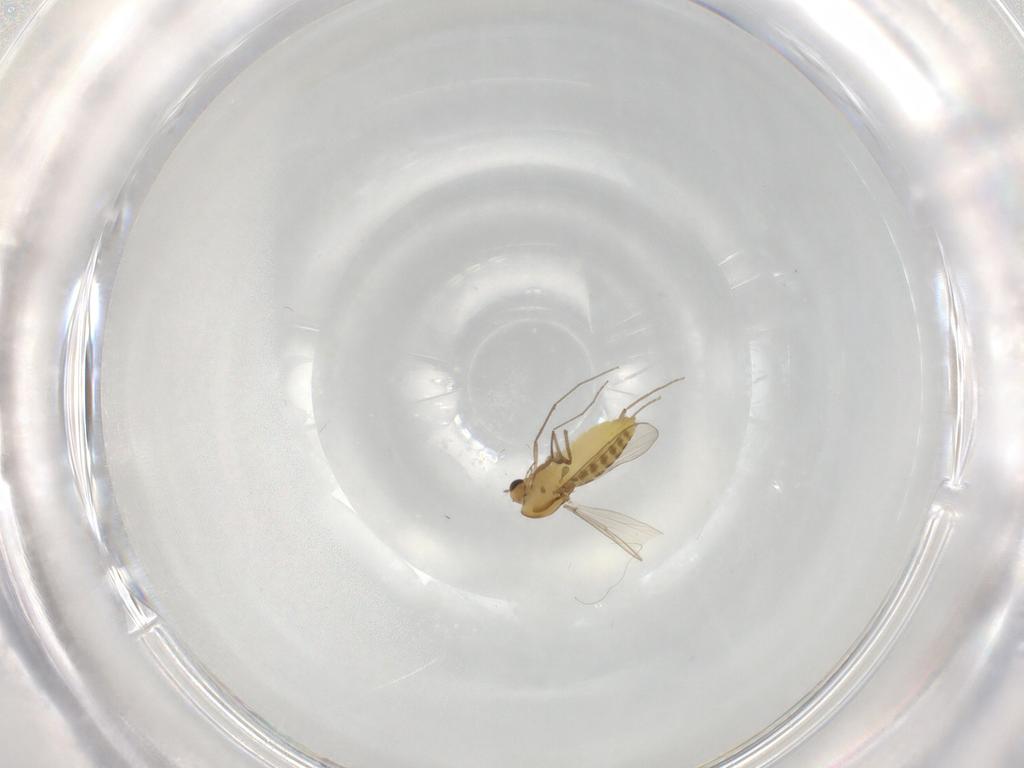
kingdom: Animalia
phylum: Arthropoda
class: Insecta
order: Diptera
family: Chironomidae
